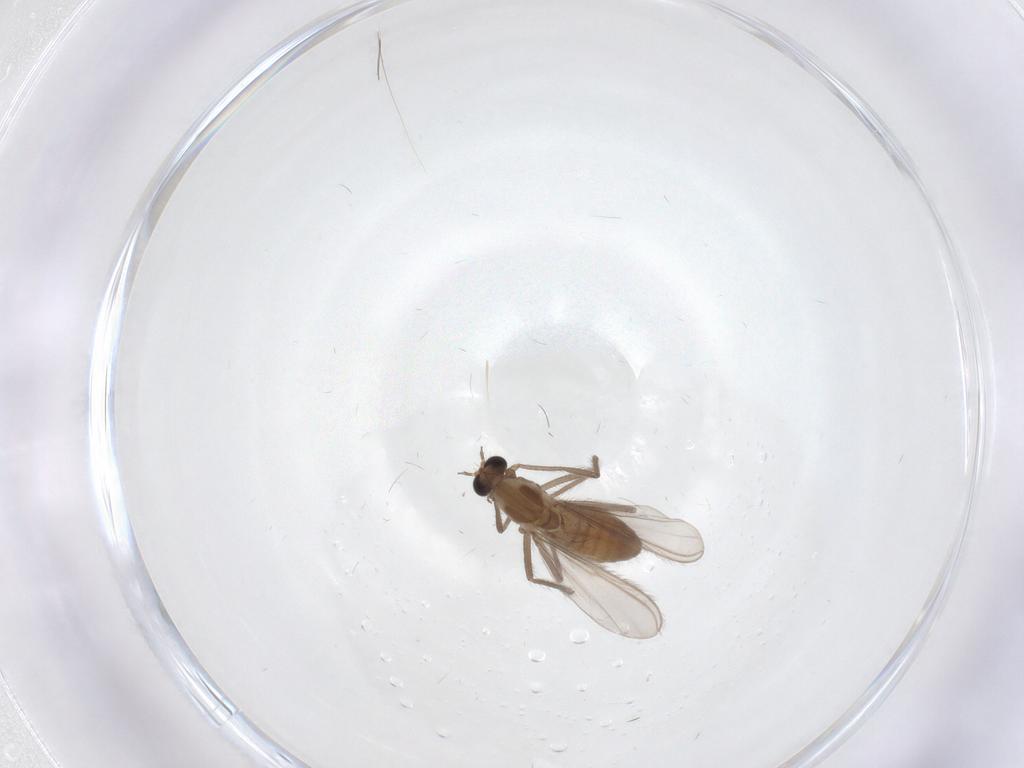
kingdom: Animalia
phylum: Arthropoda
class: Insecta
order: Diptera
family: Chironomidae
